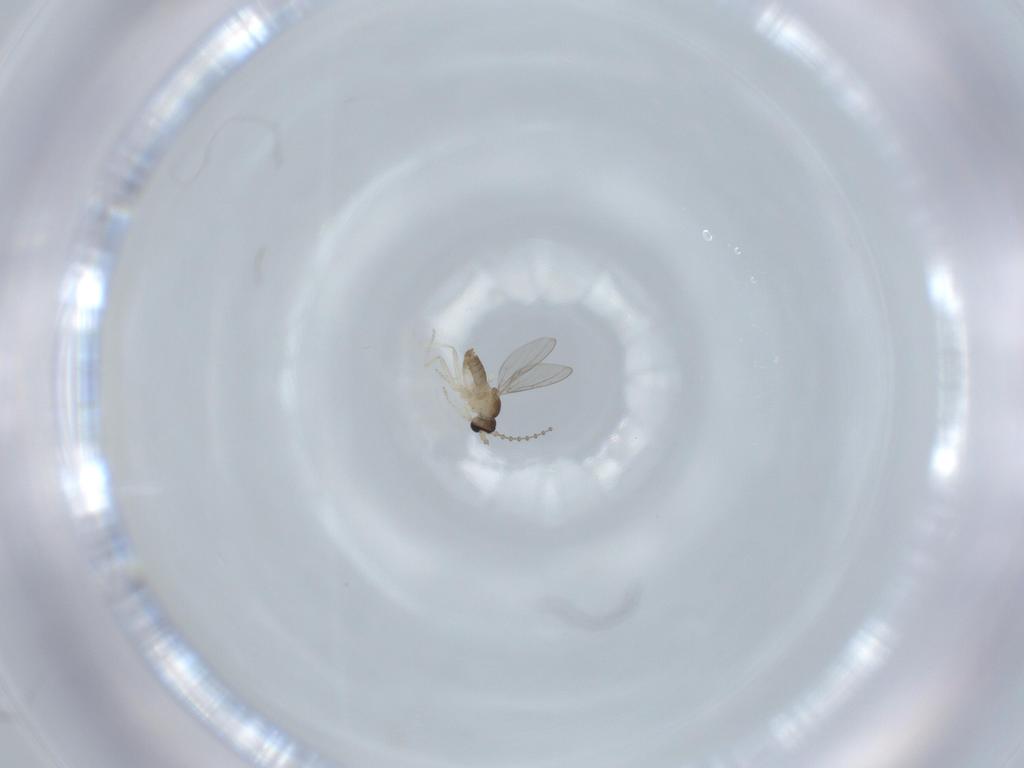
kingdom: Animalia
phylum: Arthropoda
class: Insecta
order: Diptera
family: Cecidomyiidae
